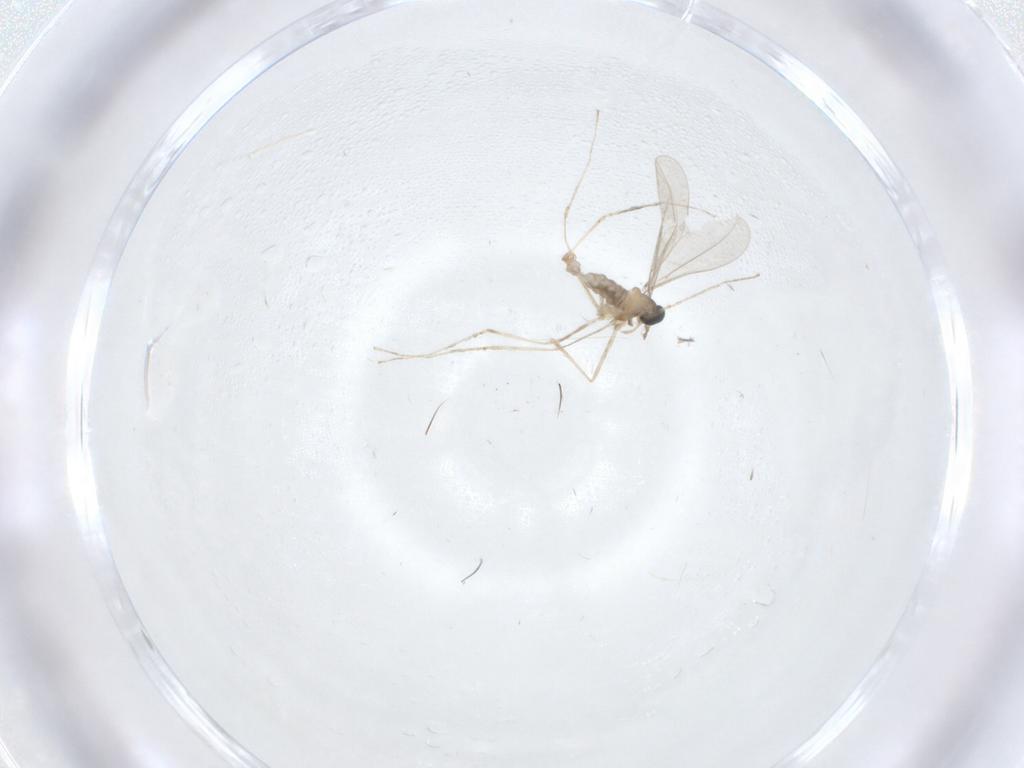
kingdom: Animalia
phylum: Arthropoda
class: Insecta
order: Diptera
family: Cecidomyiidae
